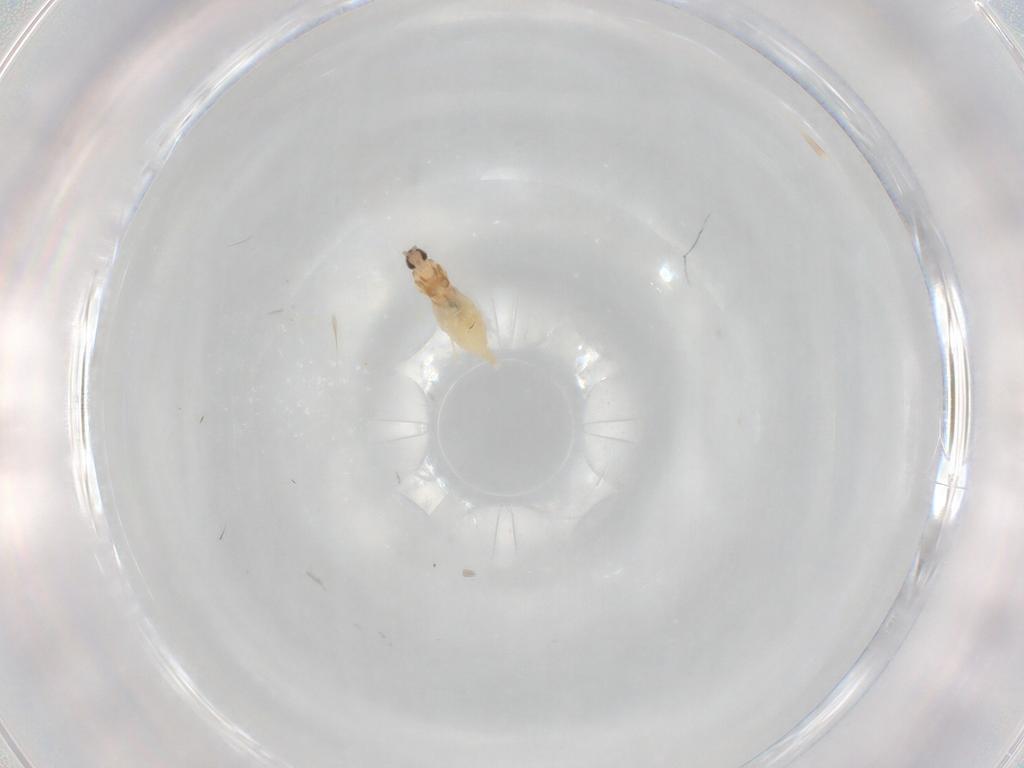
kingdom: Animalia
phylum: Arthropoda
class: Insecta
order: Diptera
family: Cecidomyiidae
